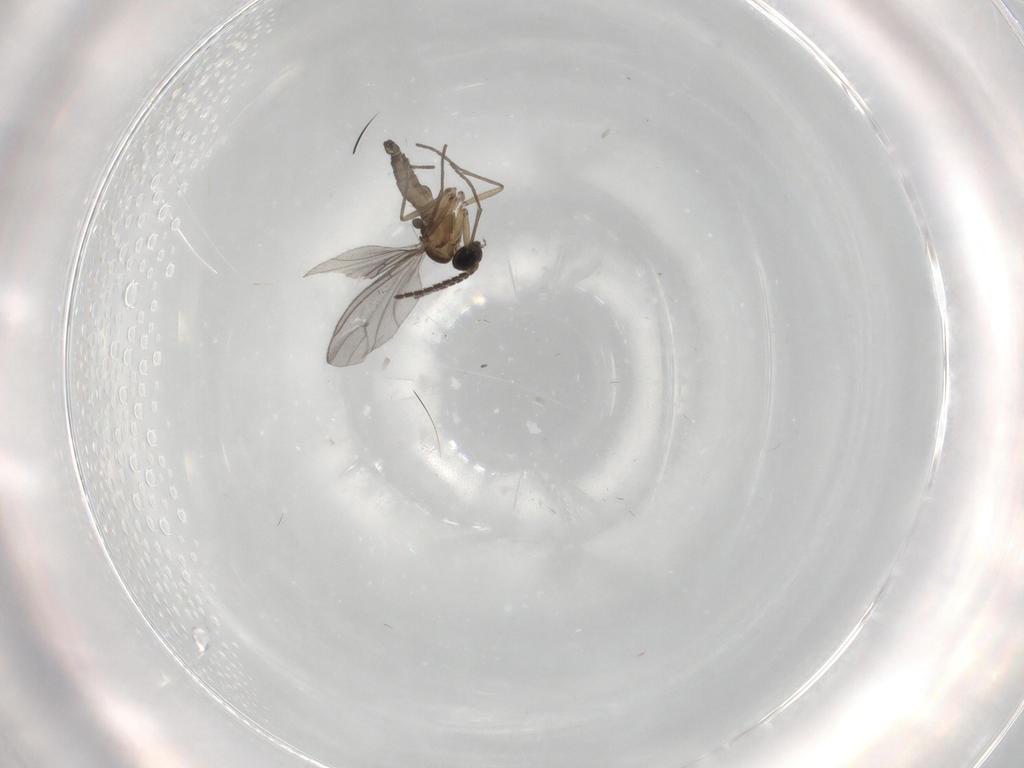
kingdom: Animalia
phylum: Arthropoda
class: Insecta
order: Diptera
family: Sciaridae
